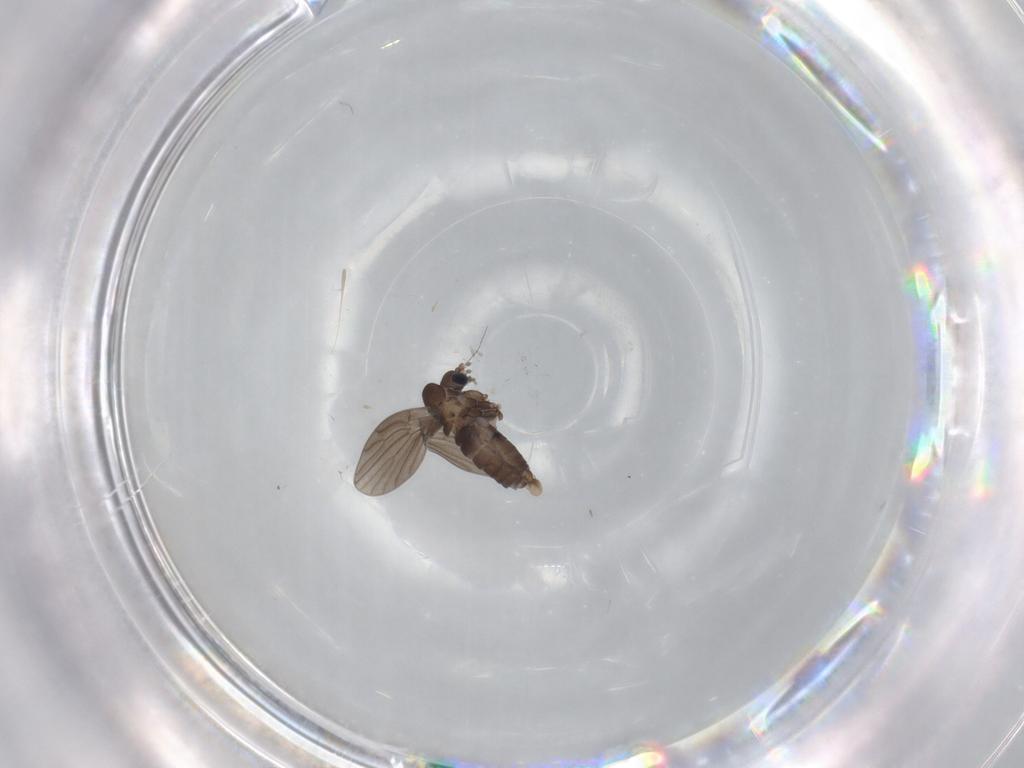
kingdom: Animalia
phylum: Arthropoda
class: Insecta
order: Diptera
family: Psychodidae
